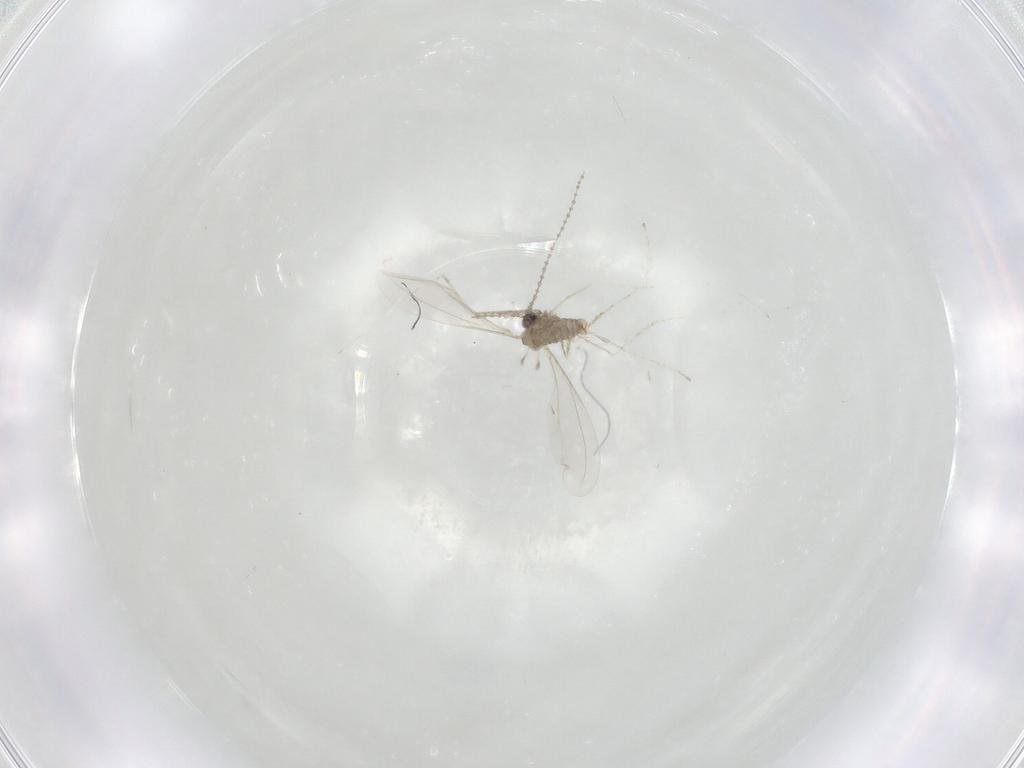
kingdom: Animalia
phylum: Arthropoda
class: Insecta
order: Diptera
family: Cecidomyiidae
